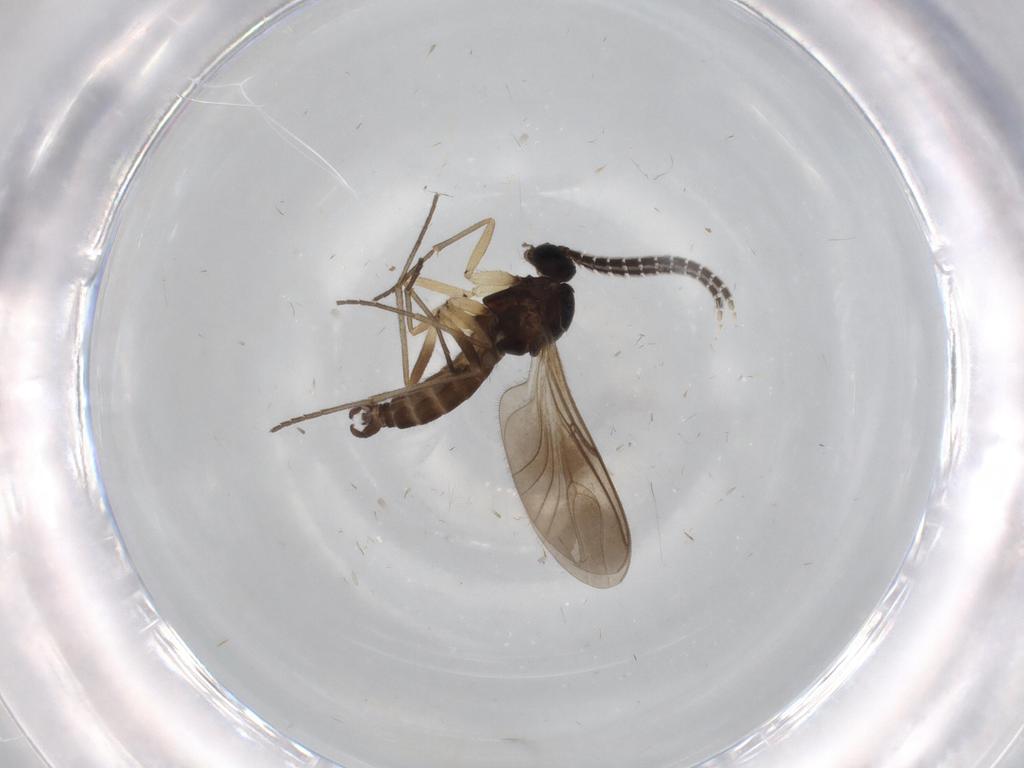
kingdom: Animalia
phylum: Arthropoda
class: Insecta
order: Diptera
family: Sciaridae
